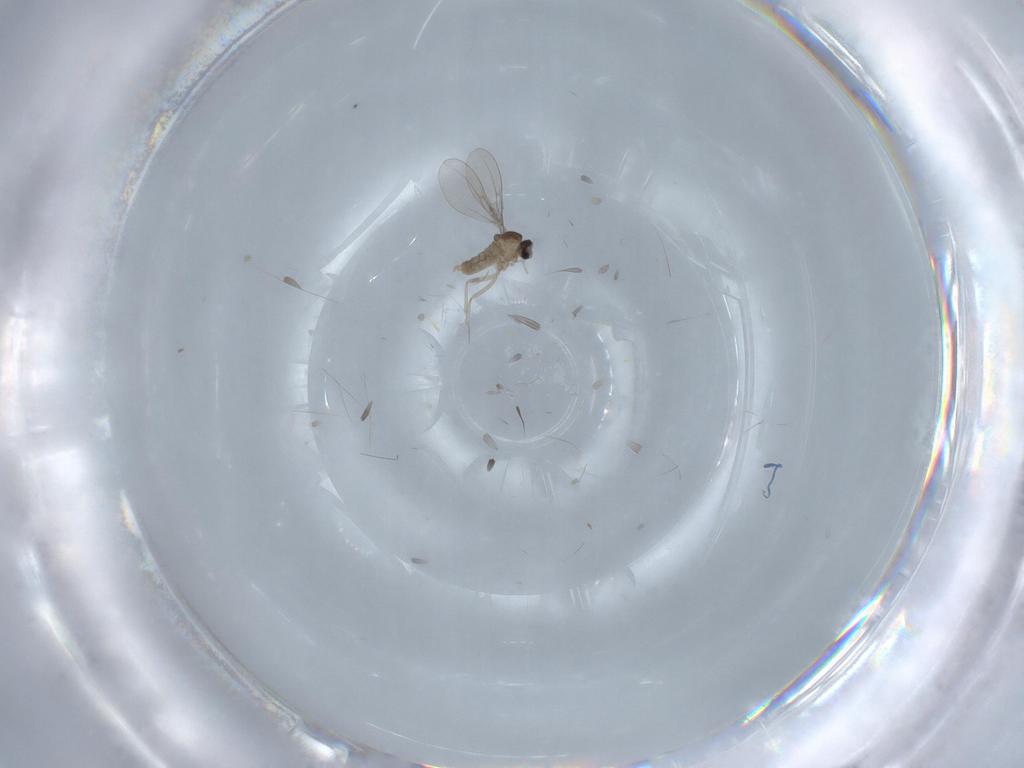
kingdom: Animalia
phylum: Arthropoda
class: Insecta
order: Diptera
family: Cecidomyiidae
